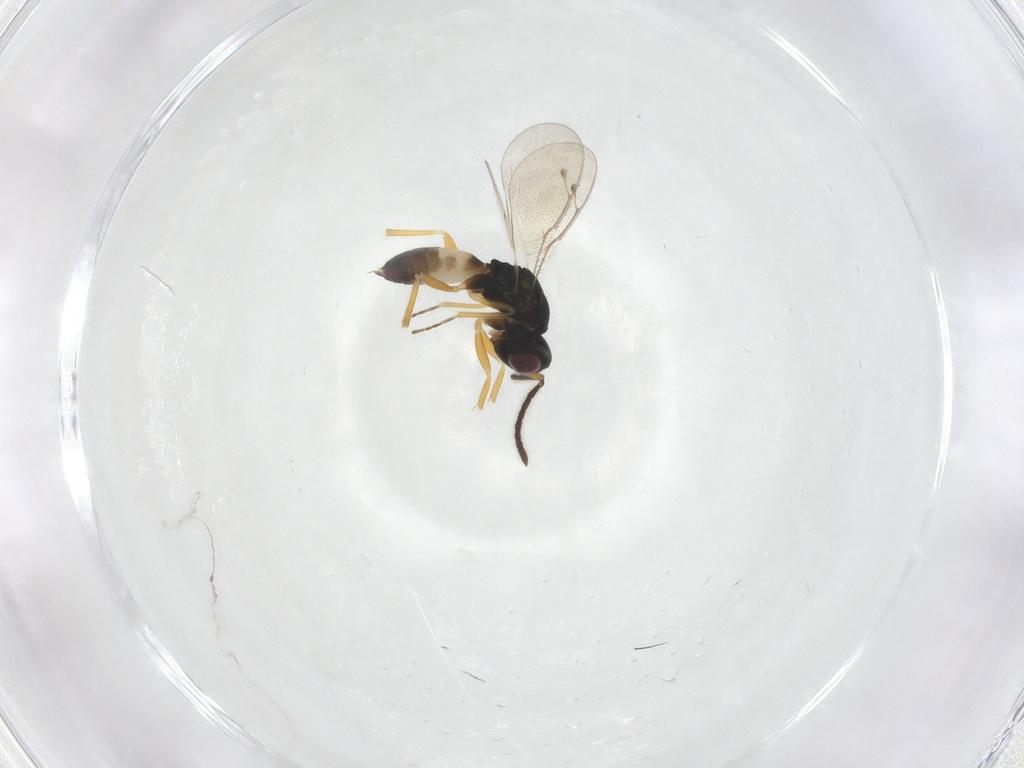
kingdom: Animalia
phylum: Arthropoda
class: Insecta
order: Hymenoptera
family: Pteromalidae
